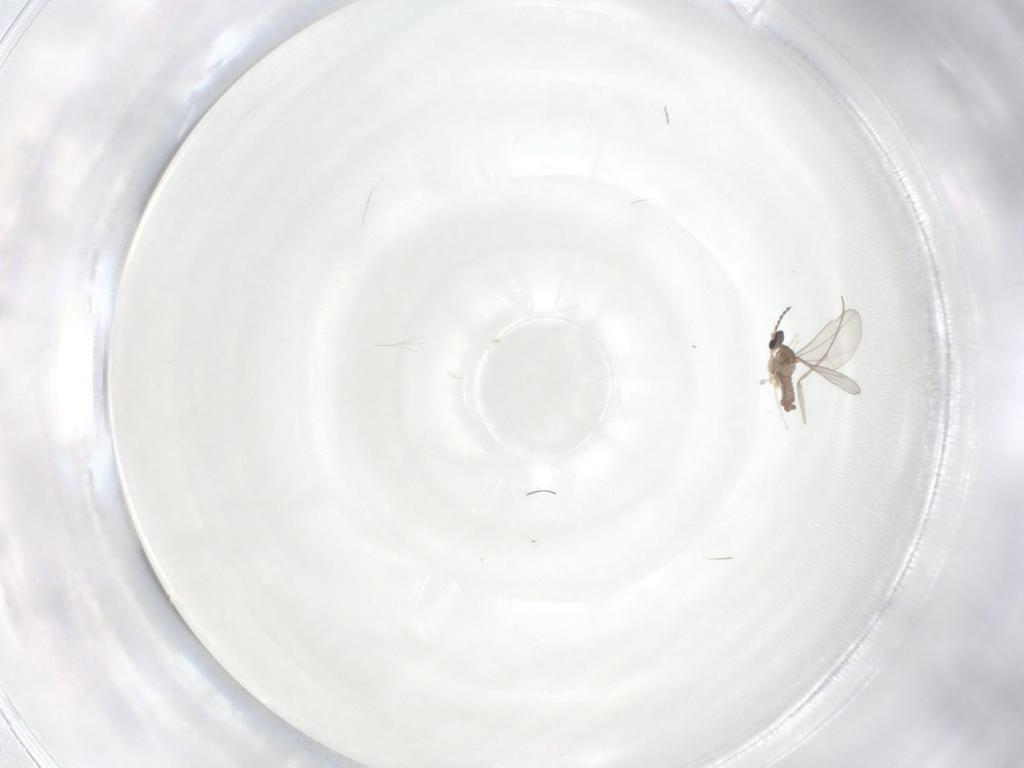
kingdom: Animalia
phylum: Arthropoda
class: Insecta
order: Diptera
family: Cecidomyiidae
